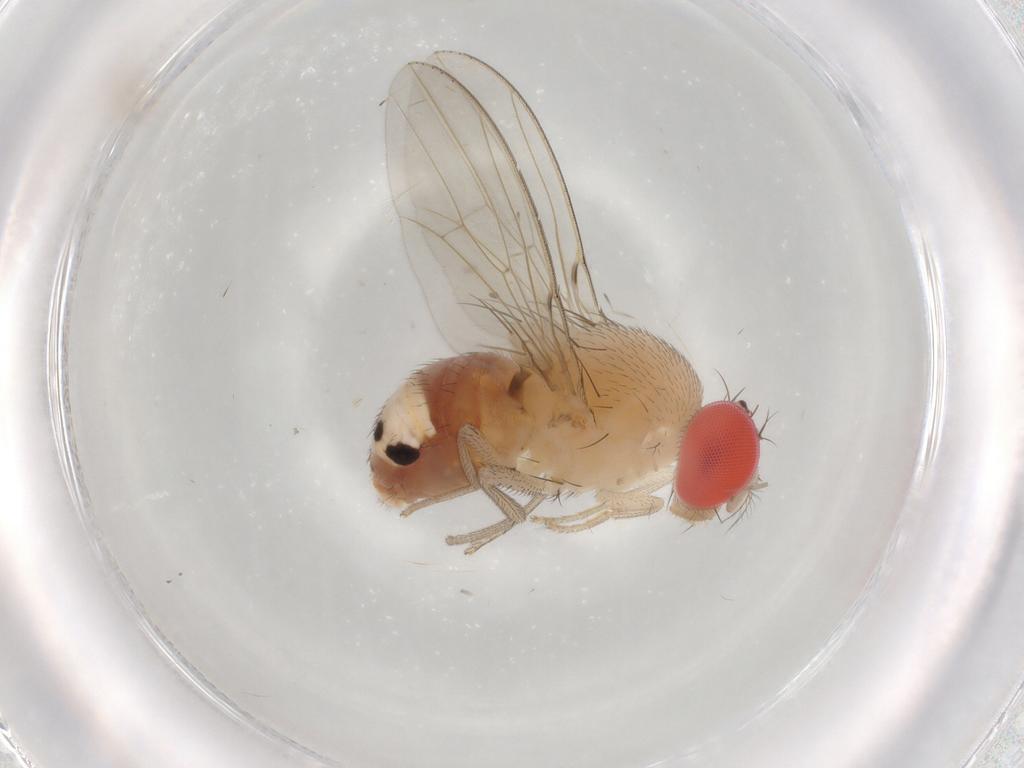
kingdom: Animalia
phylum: Arthropoda
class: Insecta
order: Diptera
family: Drosophilidae
